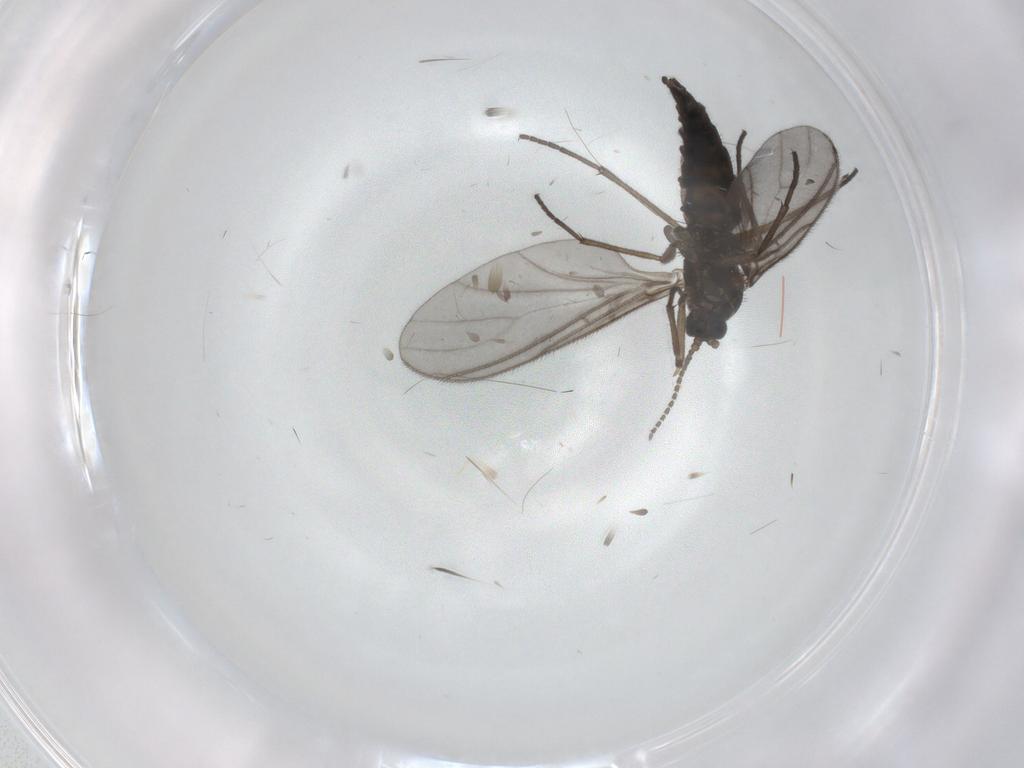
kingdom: Animalia
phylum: Arthropoda
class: Insecta
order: Diptera
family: Sciaridae
